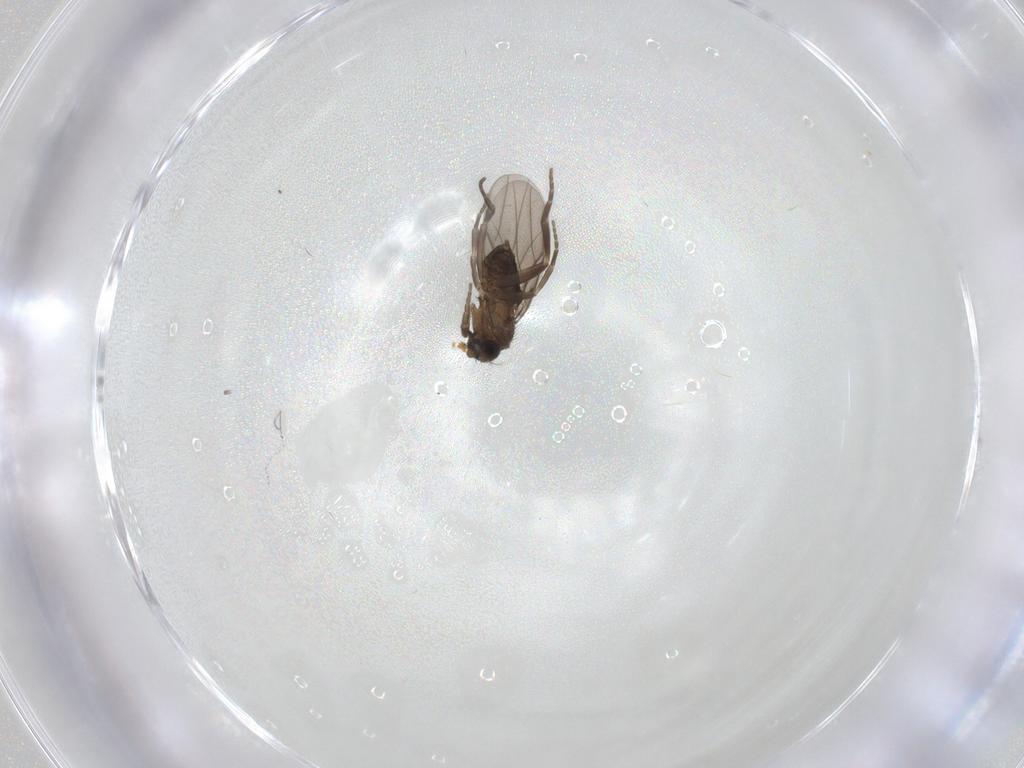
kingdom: Animalia
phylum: Arthropoda
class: Insecta
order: Diptera
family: Phoridae
